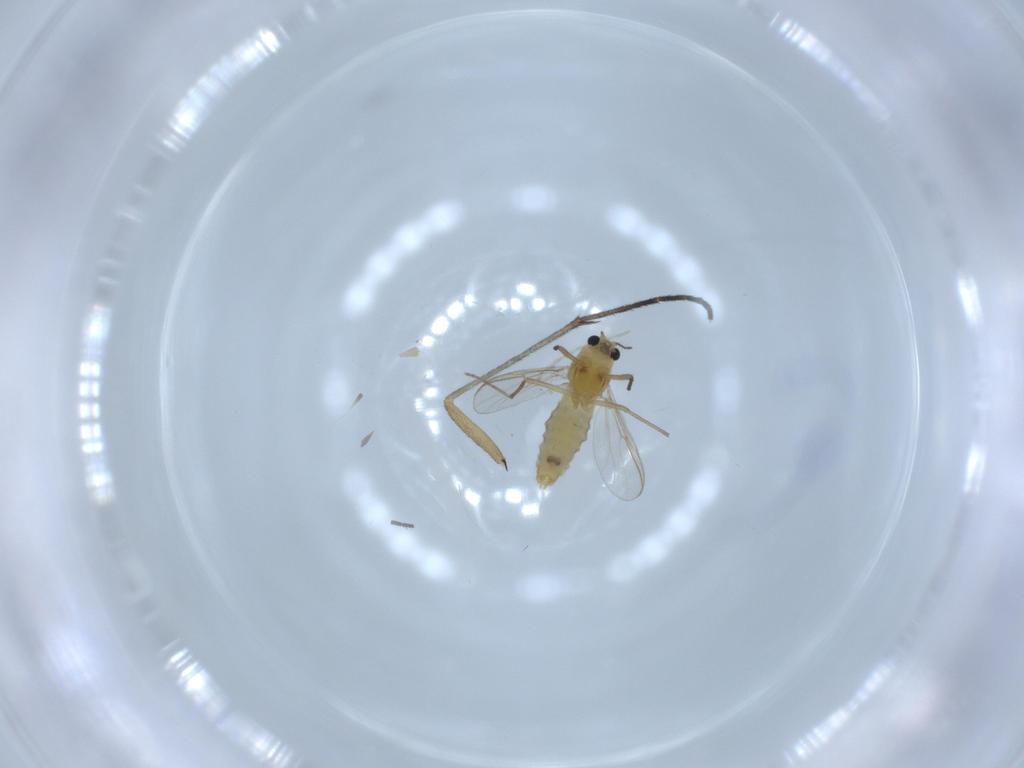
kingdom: Animalia
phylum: Arthropoda
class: Insecta
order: Diptera
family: Chironomidae
